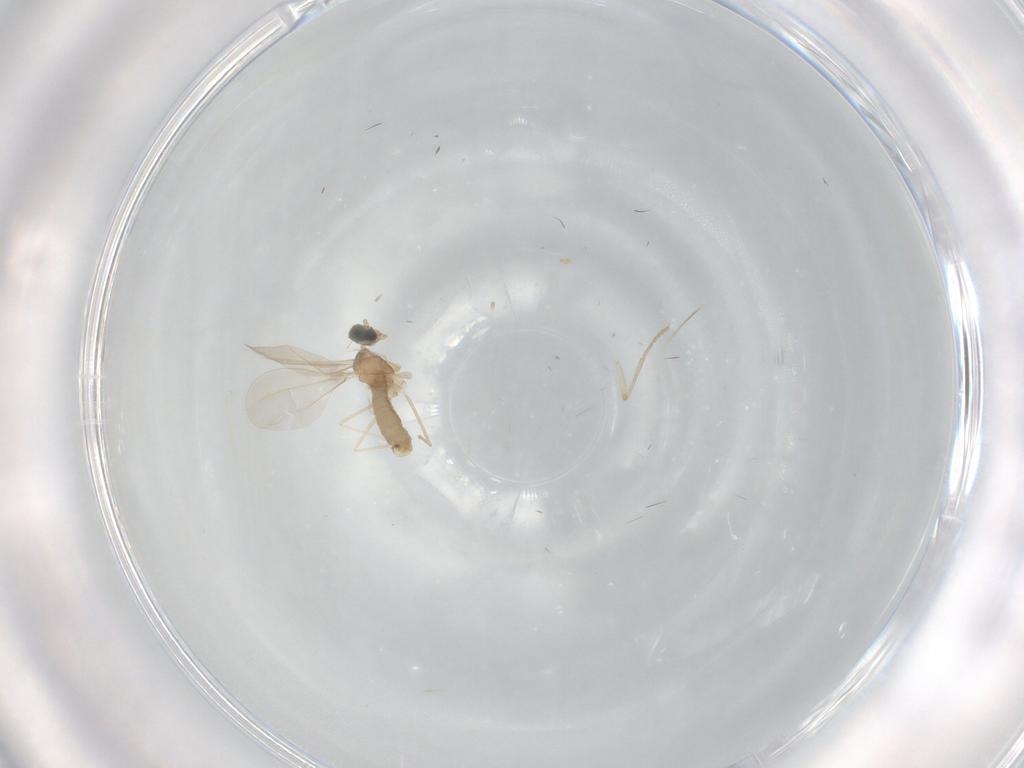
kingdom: Animalia
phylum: Arthropoda
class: Insecta
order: Diptera
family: Cecidomyiidae
